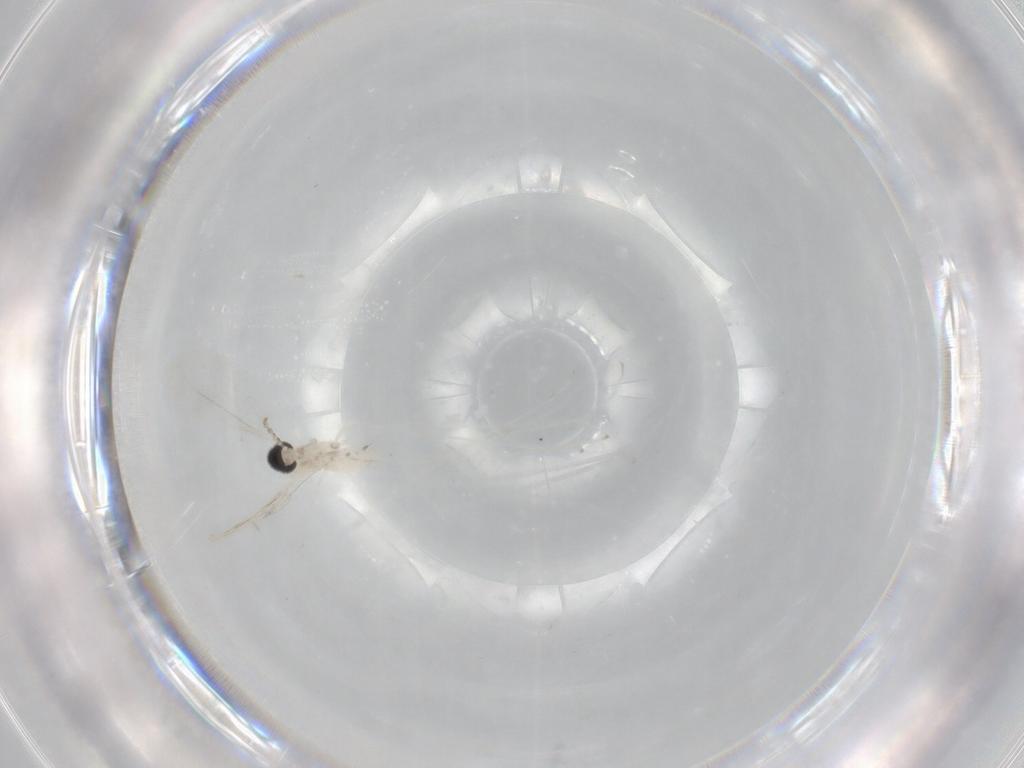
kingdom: Animalia
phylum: Arthropoda
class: Insecta
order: Diptera
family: Cecidomyiidae
